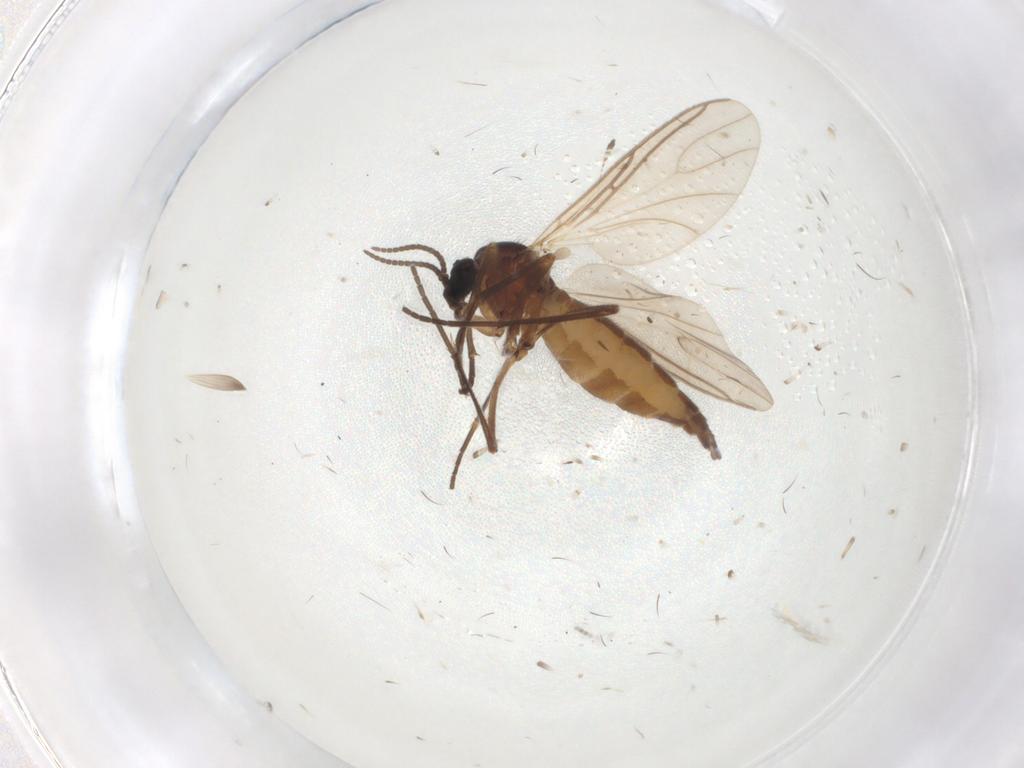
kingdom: Animalia
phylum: Arthropoda
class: Insecta
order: Diptera
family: Sciaridae
